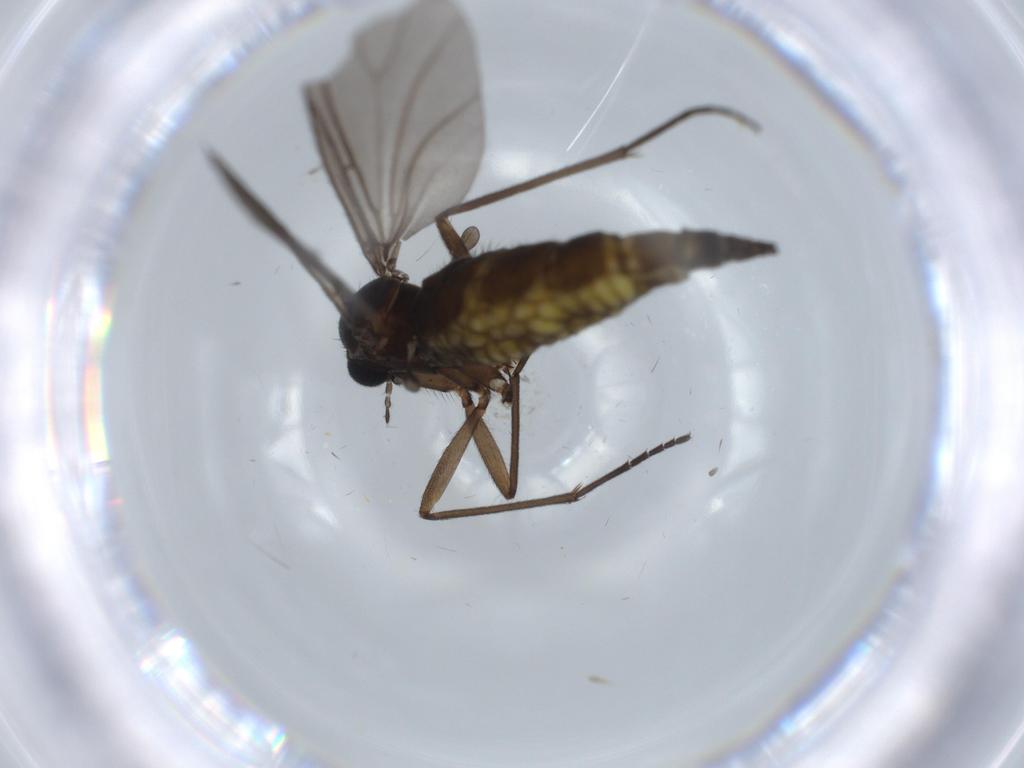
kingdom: Animalia
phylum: Arthropoda
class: Insecta
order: Diptera
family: Sciaridae
